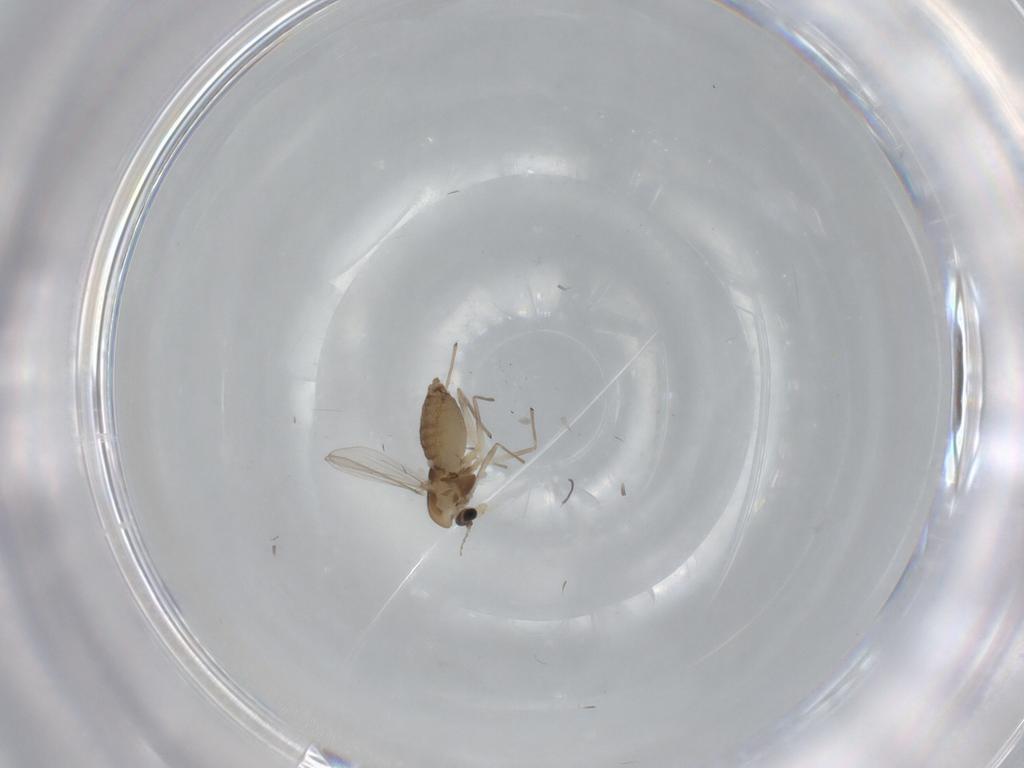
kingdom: Animalia
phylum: Arthropoda
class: Insecta
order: Diptera
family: Chironomidae
